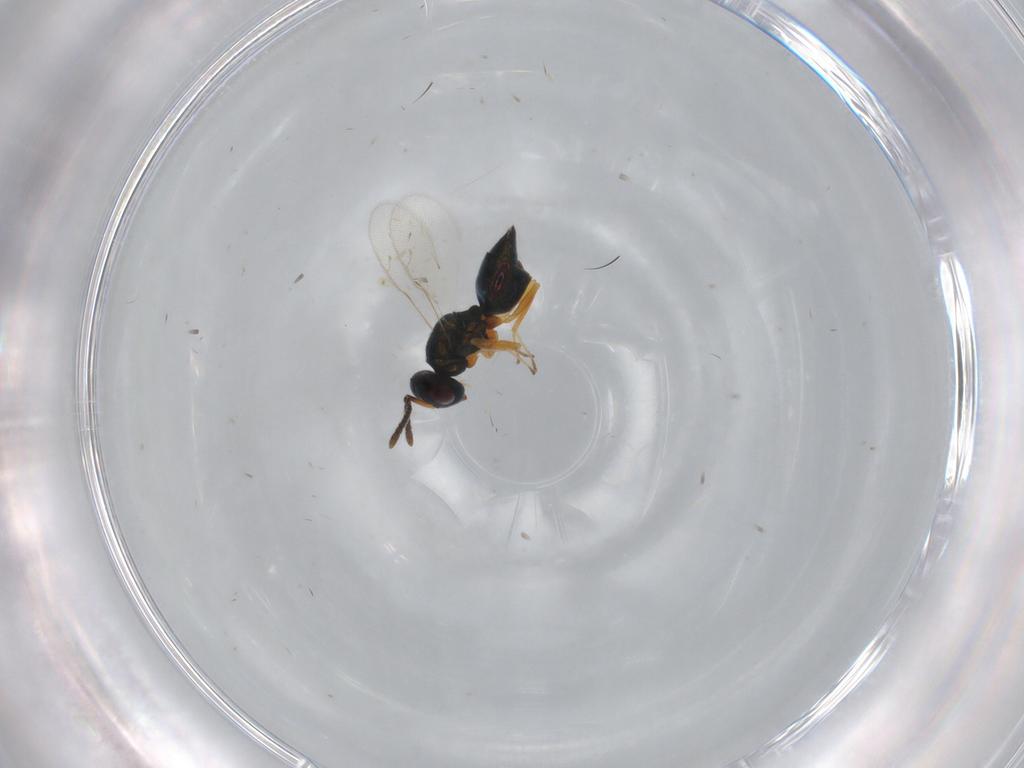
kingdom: Animalia
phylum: Arthropoda
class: Insecta
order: Hymenoptera
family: Braconidae
